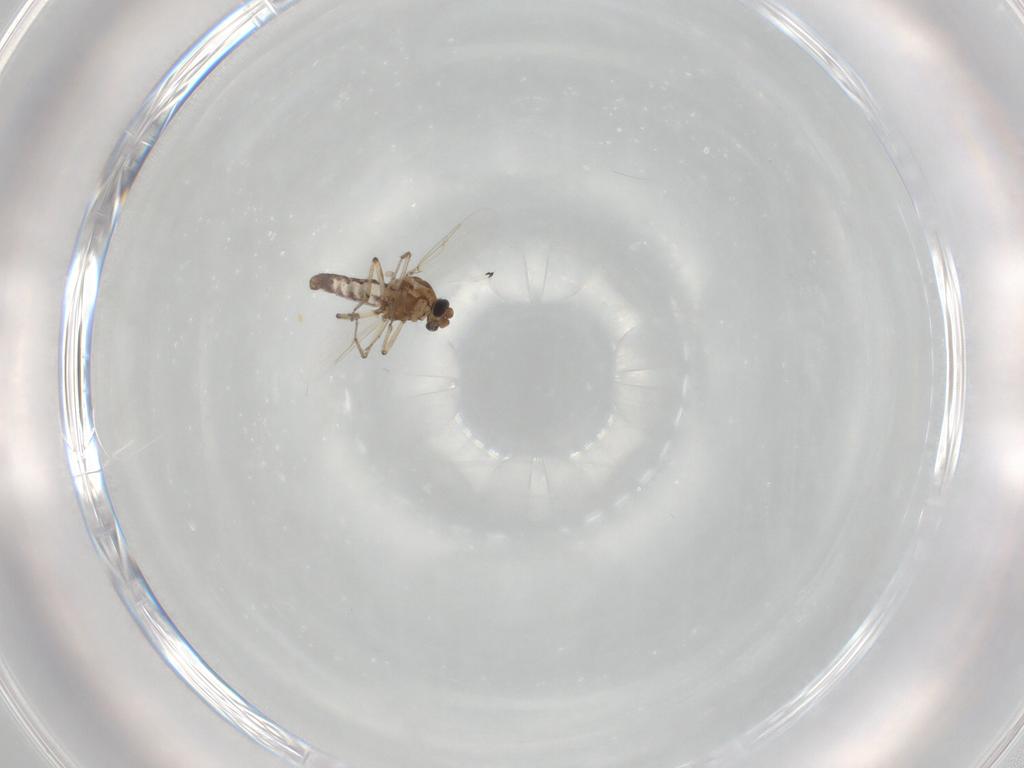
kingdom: Animalia
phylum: Arthropoda
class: Insecta
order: Diptera
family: Ceratopogonidae
